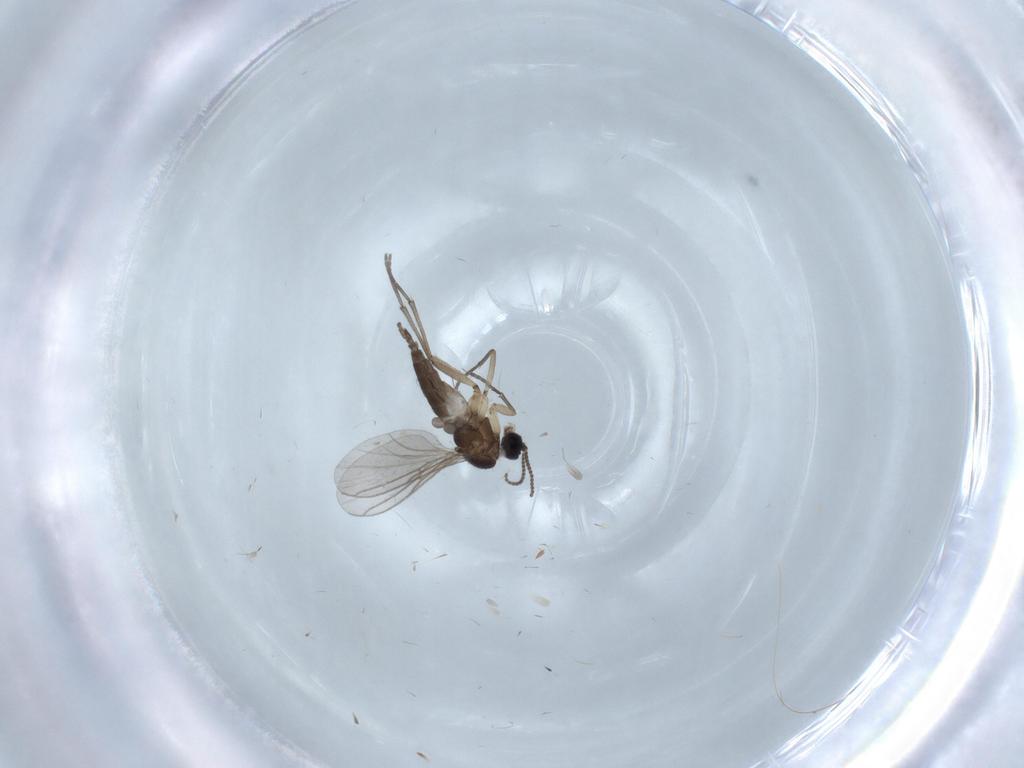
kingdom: Animalia
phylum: Arthropoda
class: Insecta
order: Diptera
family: Sciaridae
